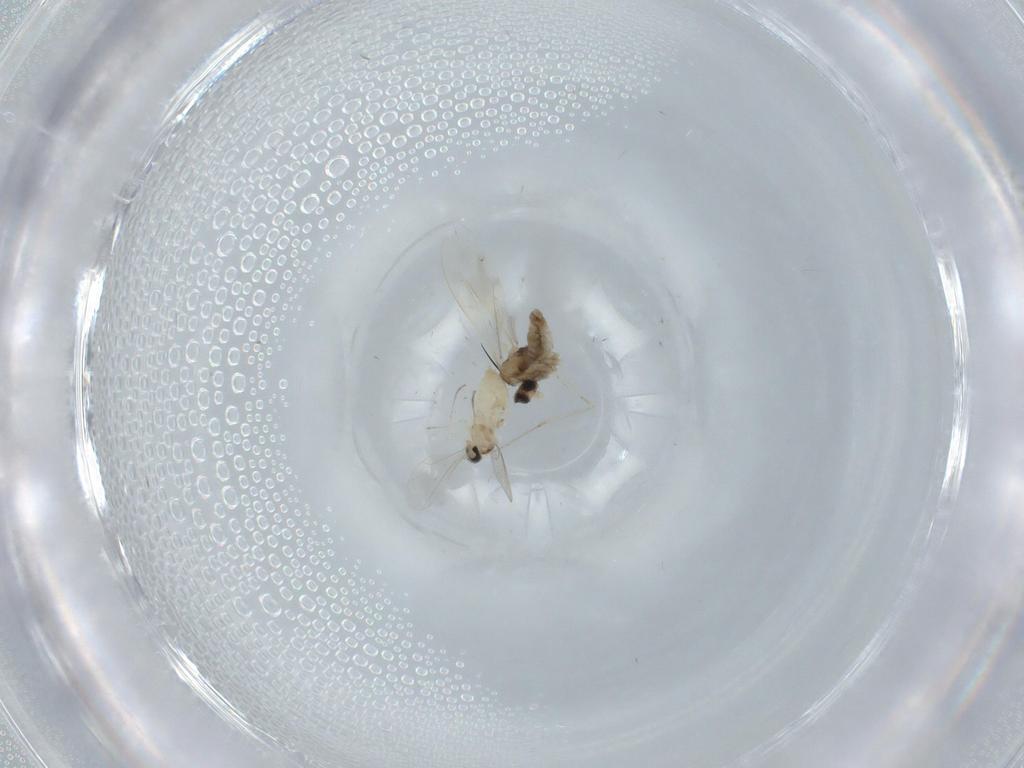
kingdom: Animalia
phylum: Arthropoda
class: Insecta
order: Diptera
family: Cecidomyiidae
